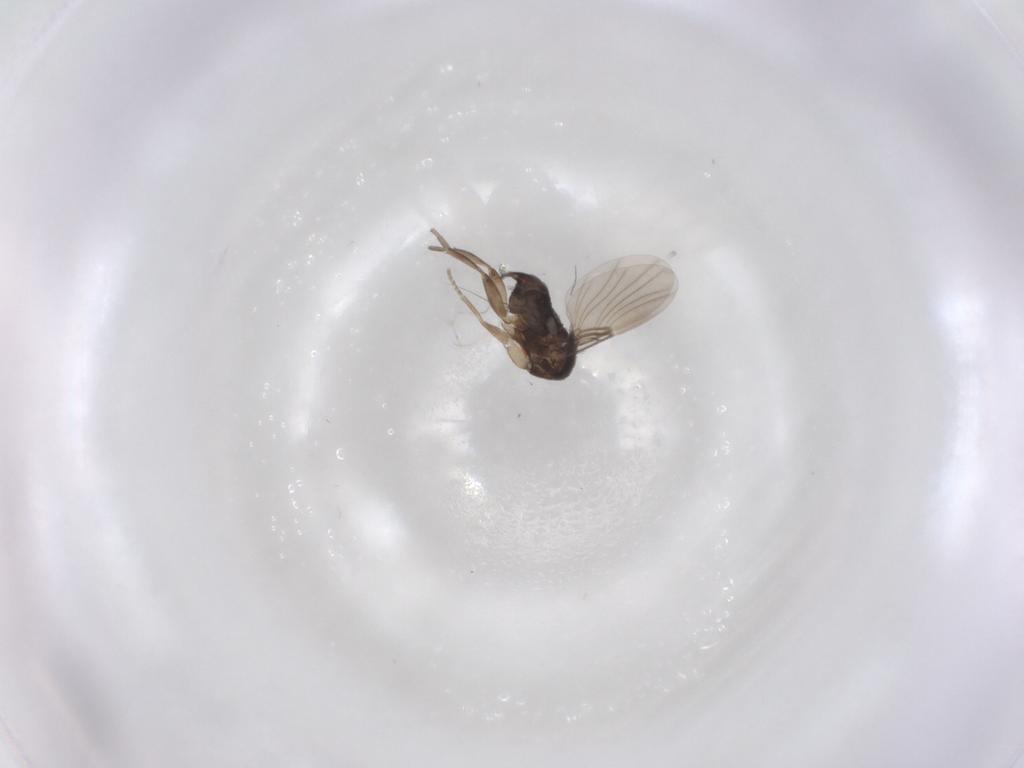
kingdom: Animalia
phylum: Arthropoda
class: Insecta
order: Diptera
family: Phoridae
